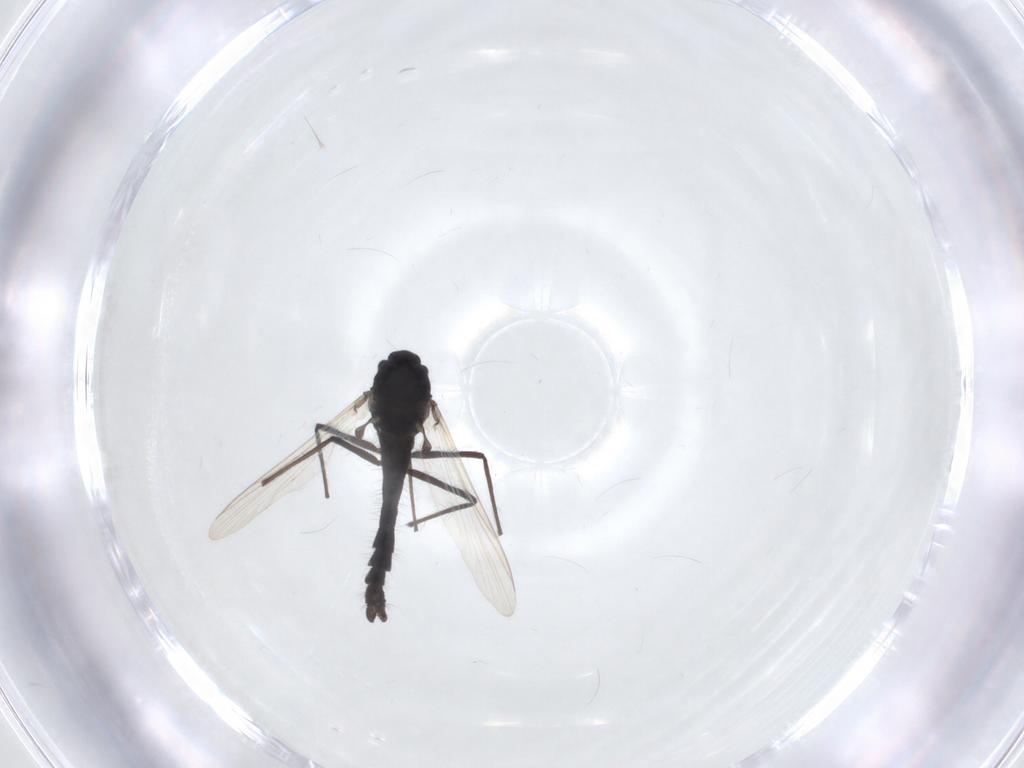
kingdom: Animalia
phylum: Arthropoda
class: Insecta
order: Diptera
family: Chironomidae
